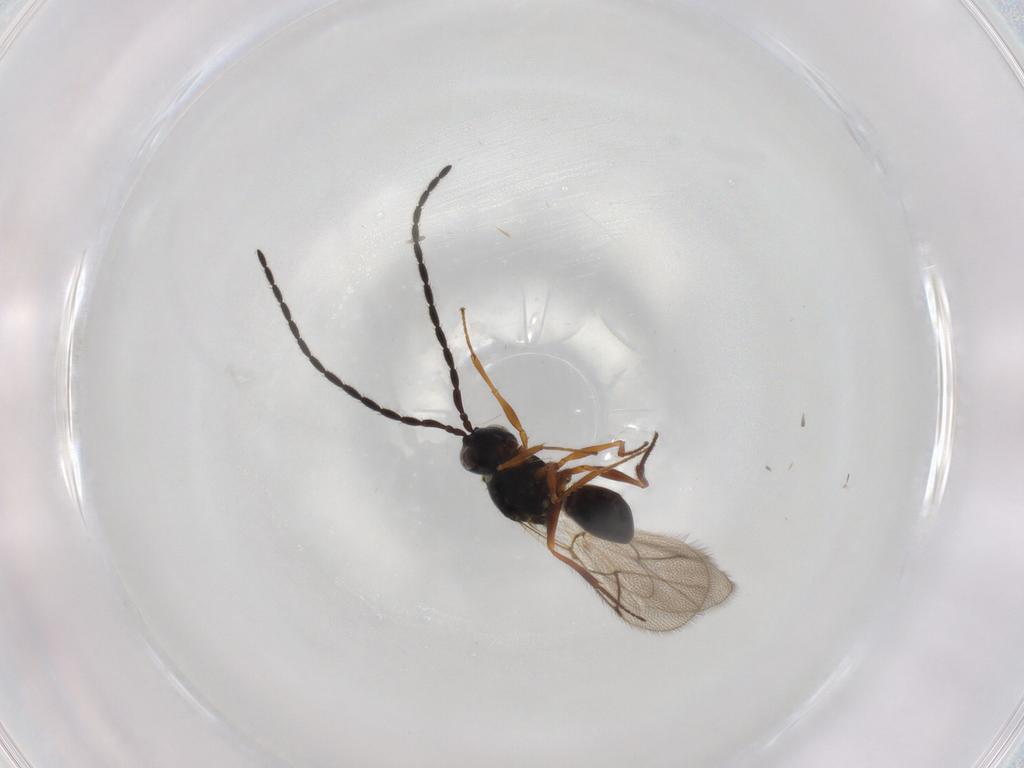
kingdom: Animalia
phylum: Arthropoda
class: Insecta
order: Hymenoptera
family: Figitidae
